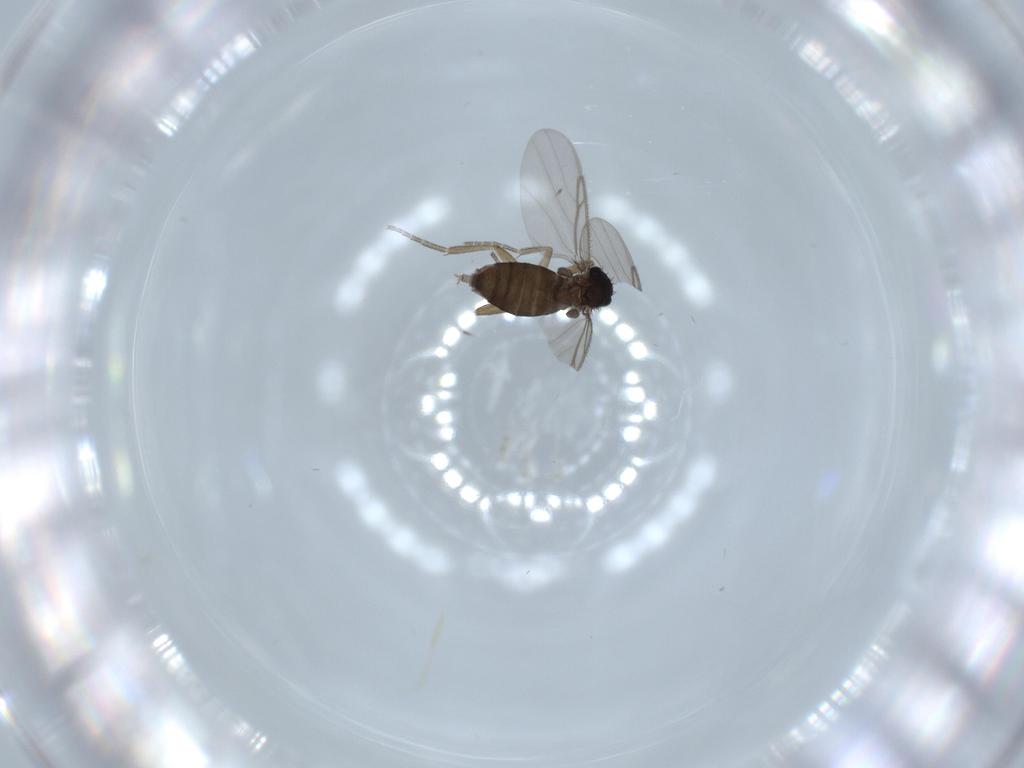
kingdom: Animalia
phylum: Arthropoda
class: Insecta
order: Diptera
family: Phoridae
